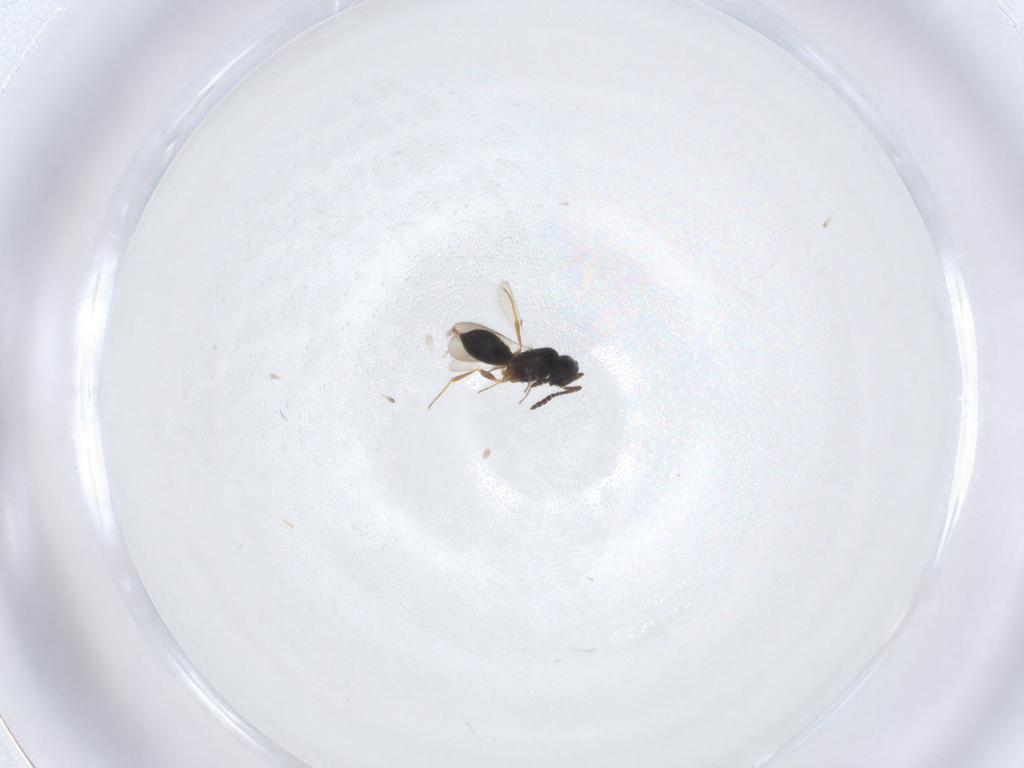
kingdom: Animalia
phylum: Arthropoda
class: Insecta
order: Hymenoptera
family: Scelionidae
